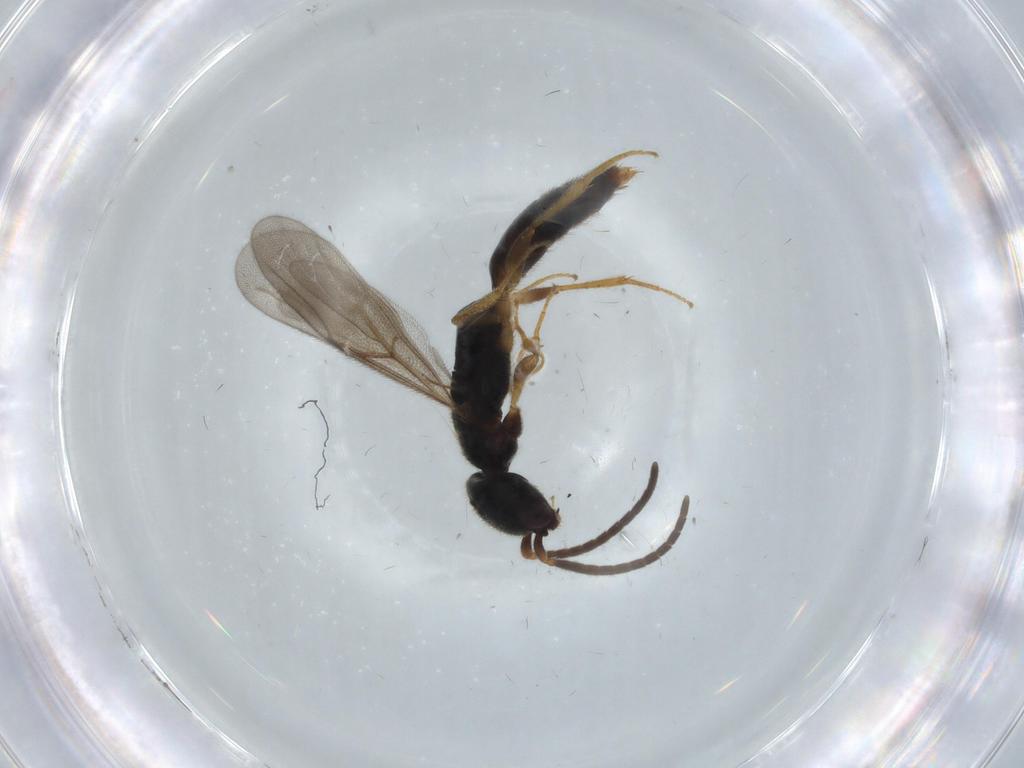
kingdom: Animalia
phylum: Arthropoda
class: Insecta
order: Hymenoptera
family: Bethylidae
